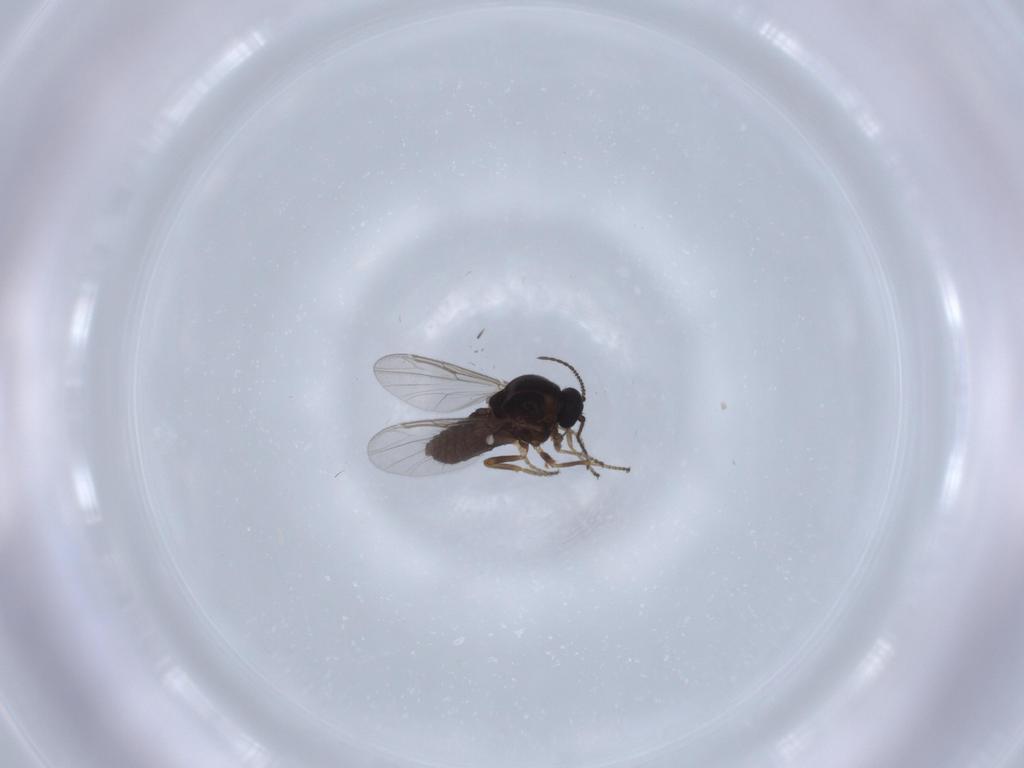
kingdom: Animalia
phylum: Arthropoda
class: Insecta
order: Diptera
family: Ceratopogonidae
